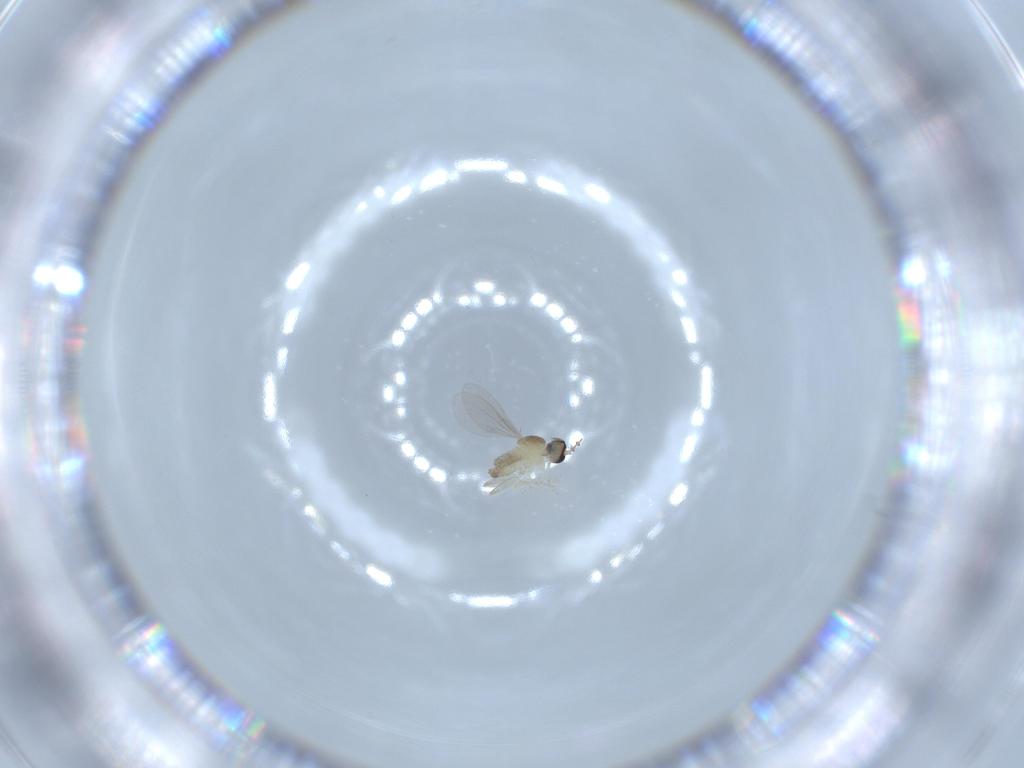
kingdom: Animalia
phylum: Arthropoda
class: Insecta
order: Diptera
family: Cecidomyiidae
